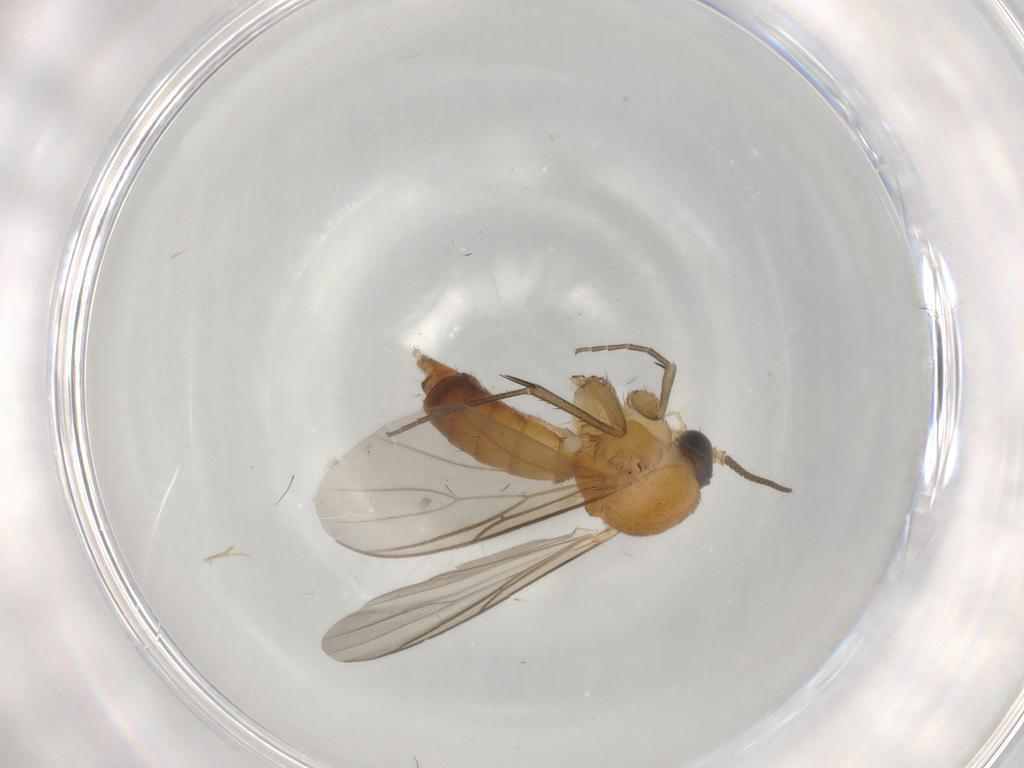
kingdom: Animalia
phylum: Arthropoda
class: Insecta
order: Diptera
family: Mycetophilidae
